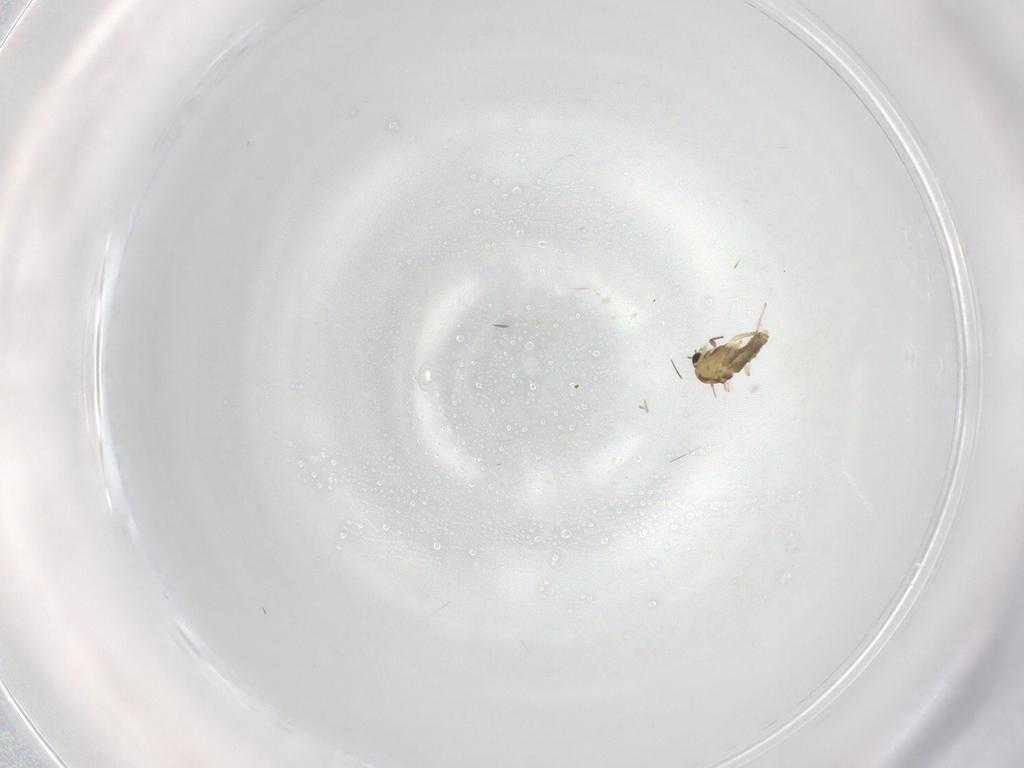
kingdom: Animalia
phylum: Arthropoda
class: Insecta
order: Diptera
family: Chironomidae
